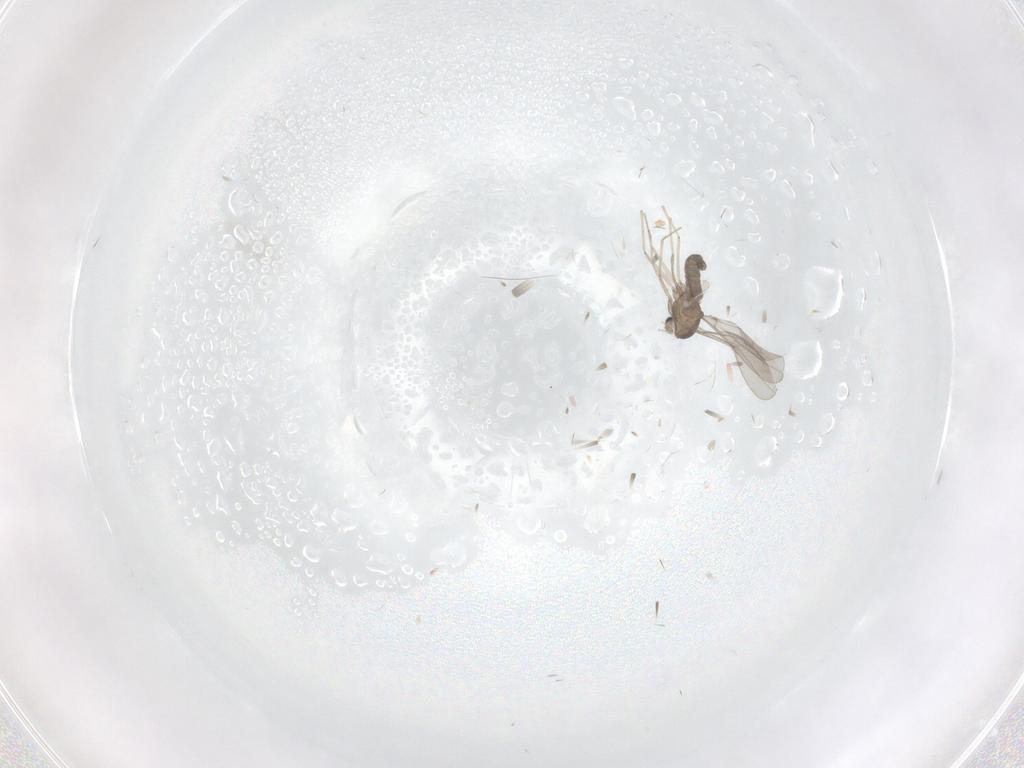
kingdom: Animalia
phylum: Arthropoda
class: Insecta
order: Diptera
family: Cecidomyiidae
